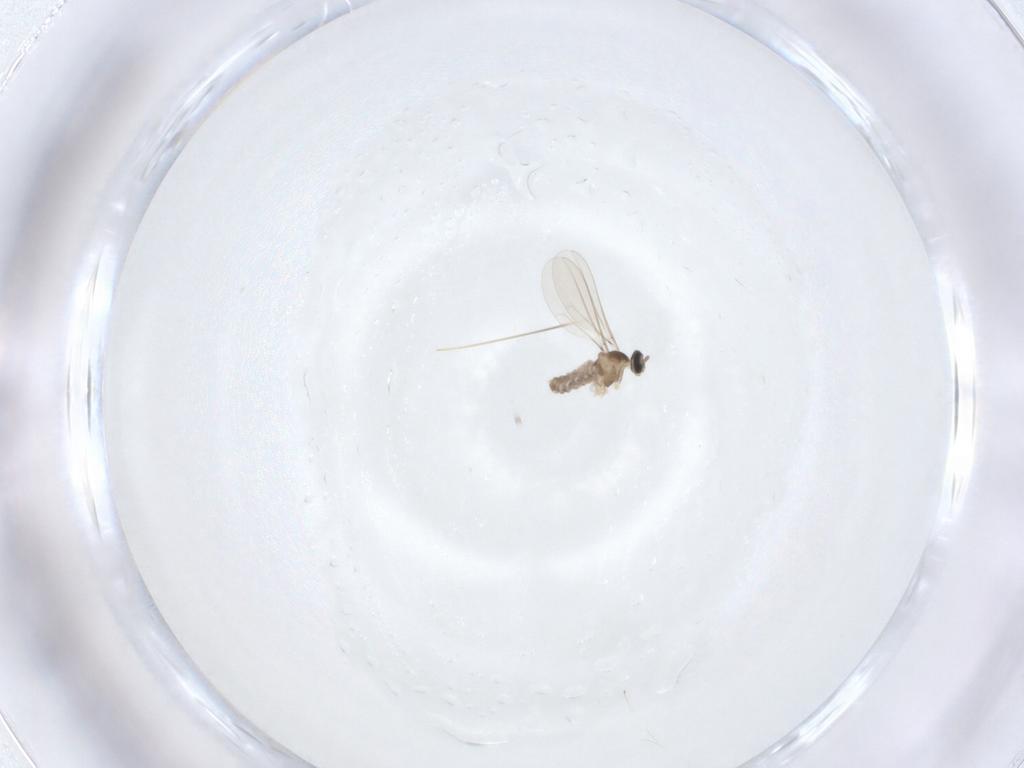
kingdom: Animalia
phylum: Arthropoda
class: Insecta
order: Diptera
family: Cecidomyiidae
